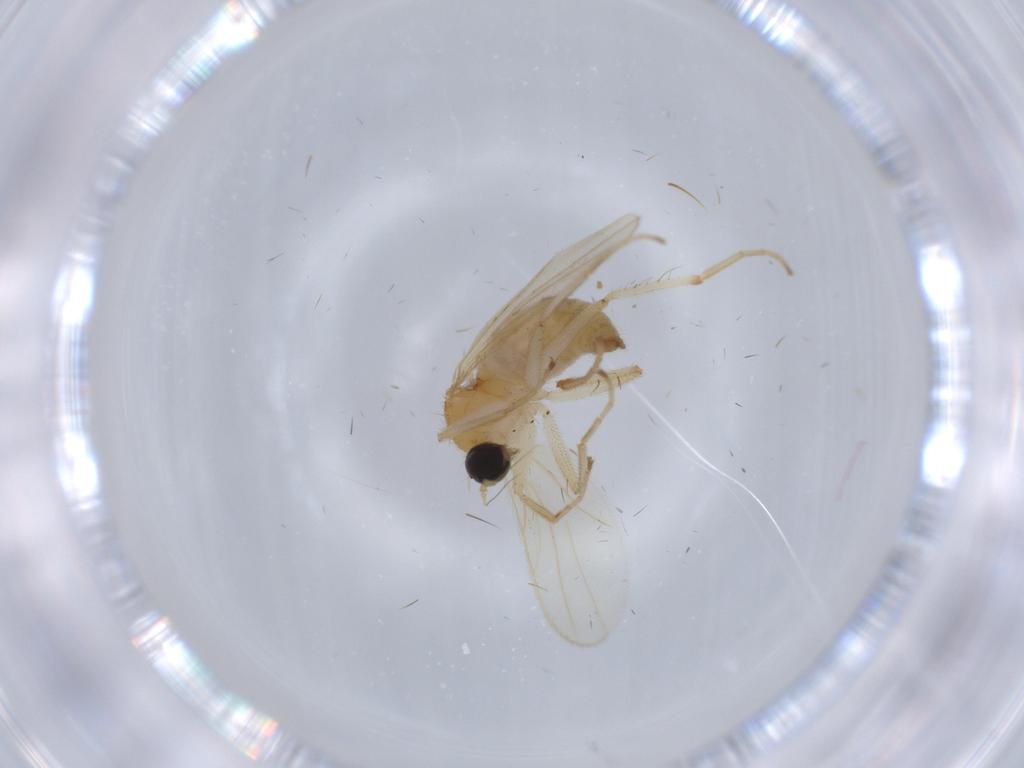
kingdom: Animalia
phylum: Arthropoda
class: Insecta
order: Diptera
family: Hybotidae
